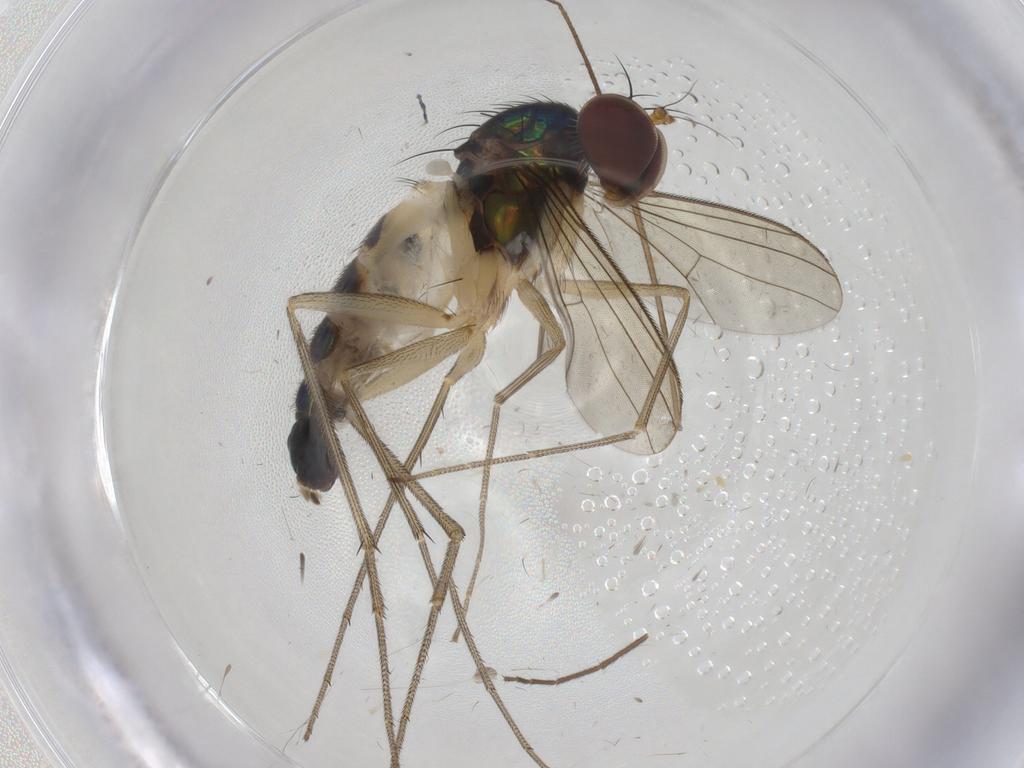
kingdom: Animalia
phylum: Arthropoda
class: Insecta
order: Diptera
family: Dolichopodidae
